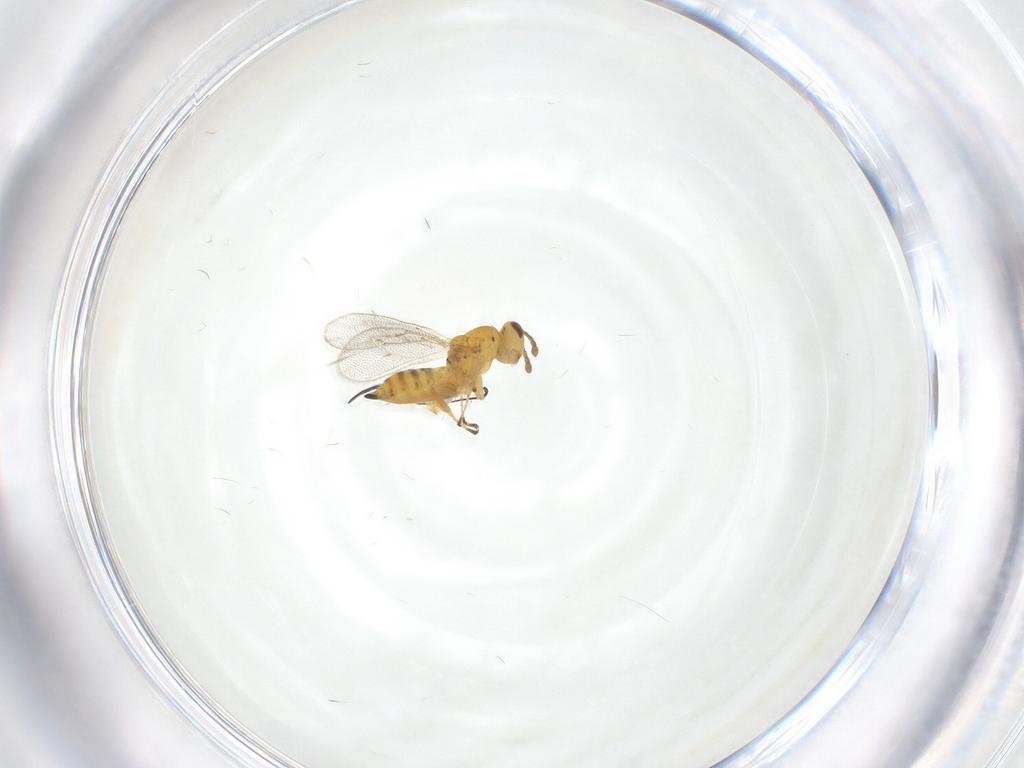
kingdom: Animalia
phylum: Arthropoda
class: Insecta
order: Hymenoptera
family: Eulophidae
